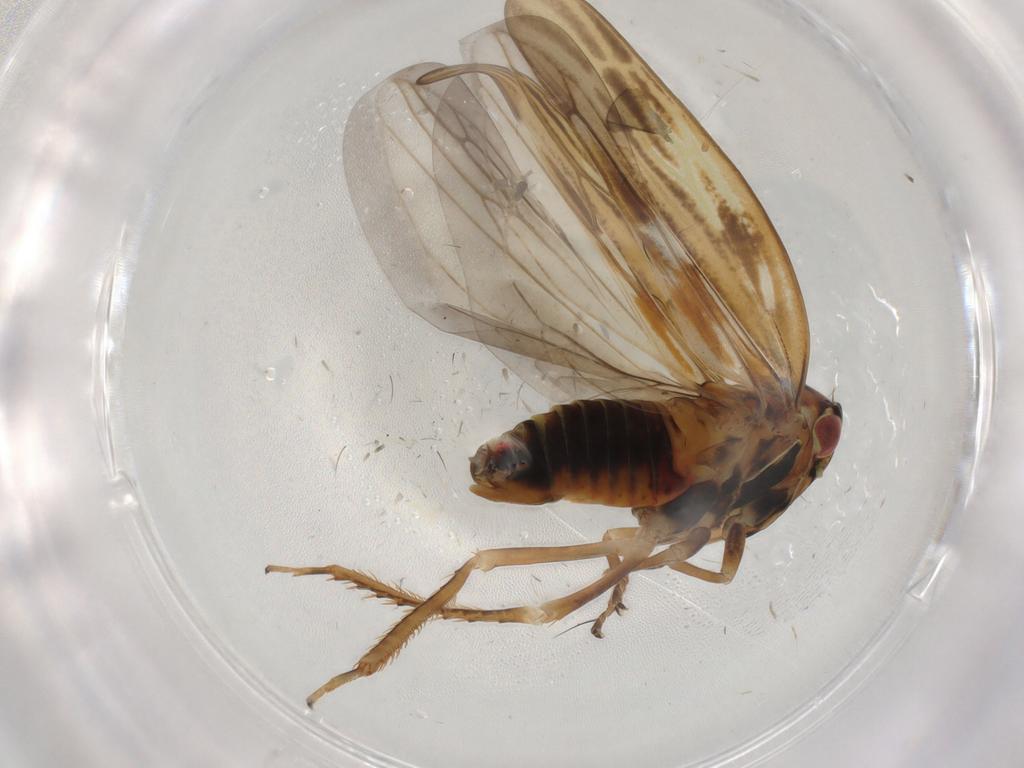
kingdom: Animalia
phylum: Arthropoda
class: Insecta
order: Hemiptera
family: Cicadellidae
